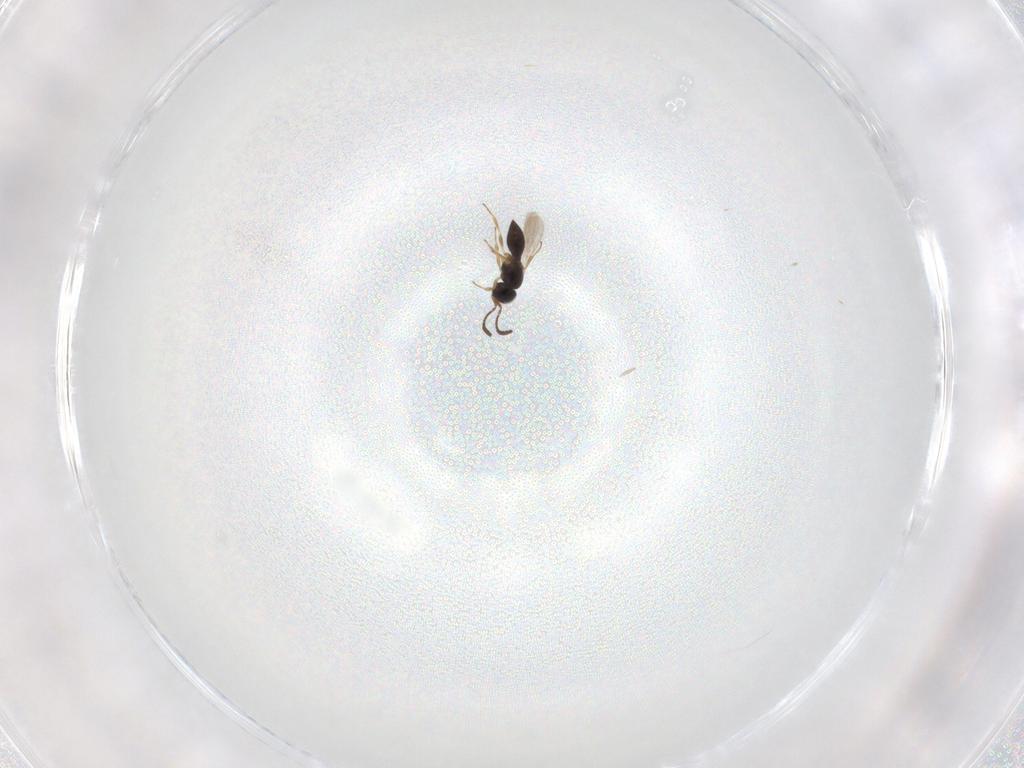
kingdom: Animalia
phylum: Arthropoda
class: Insecta
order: Hymenoptera
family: Scelionidae
